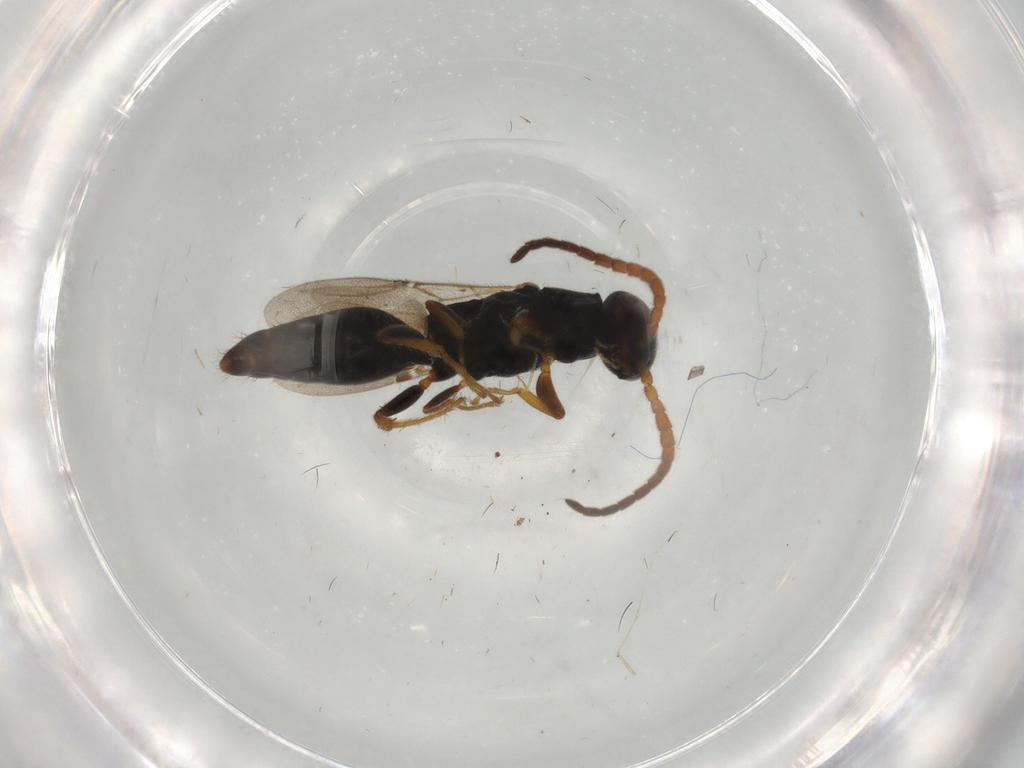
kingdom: Animalia
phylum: Arthropoda
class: Insecta
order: Hymenoptera
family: Bethylidae
